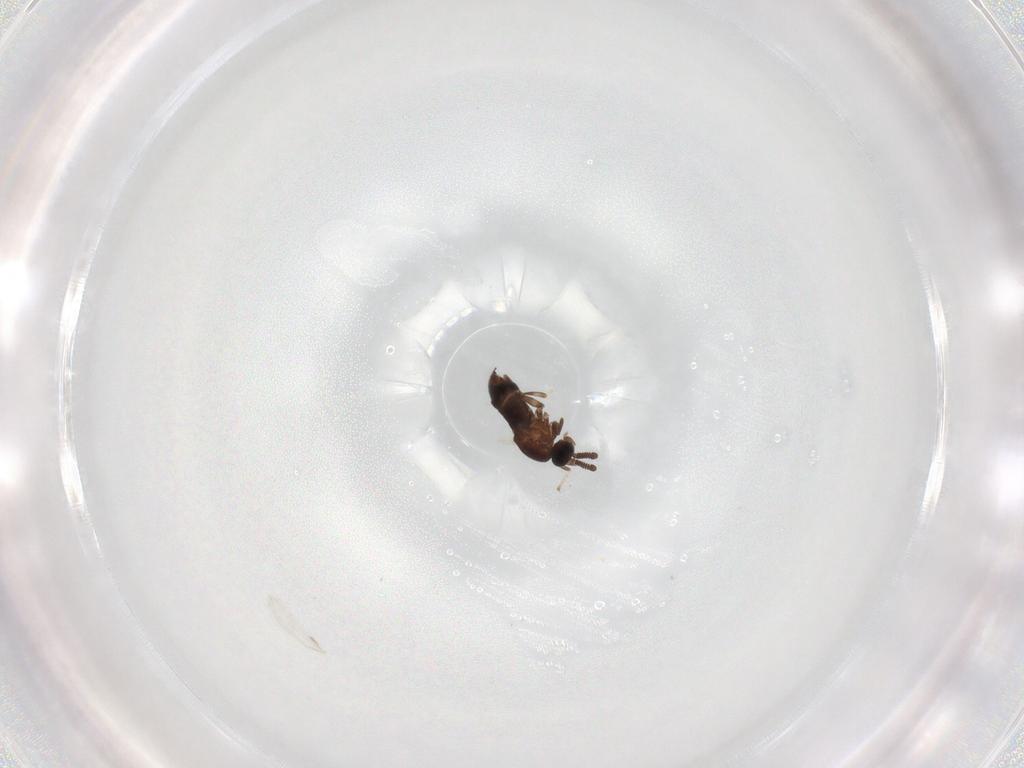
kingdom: Animalia
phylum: Arthropoda
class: Insecta
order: Diptera
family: Scatopsidae
